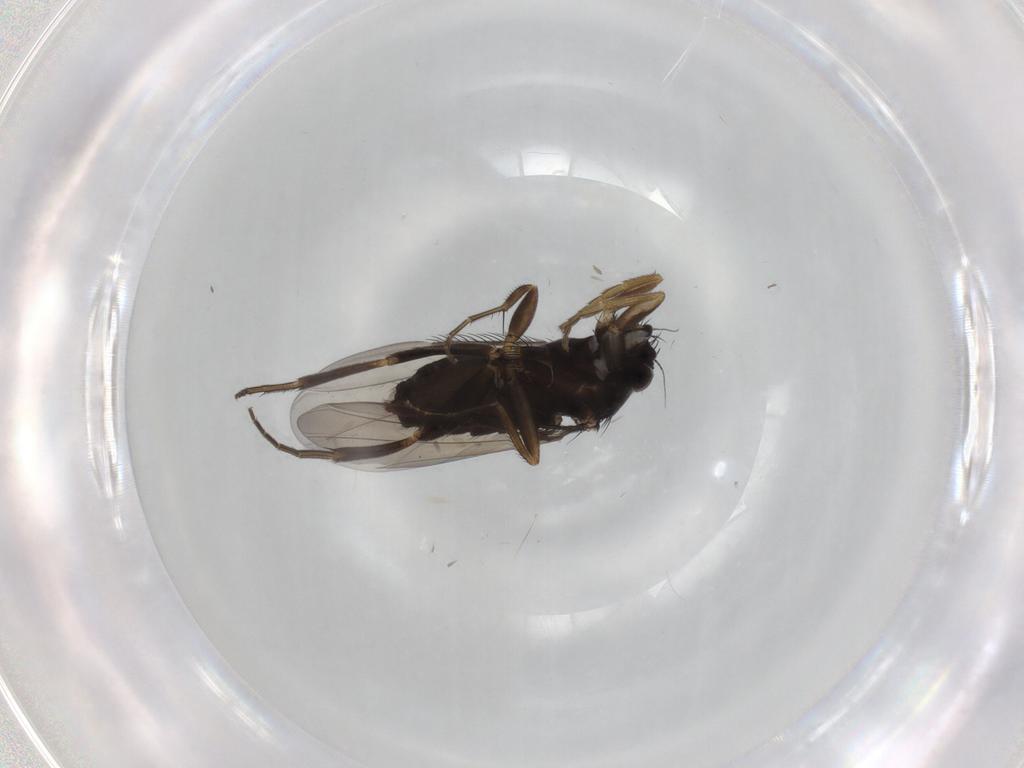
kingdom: Animalia
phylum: Arthropoda
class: Insecta
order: Diptera
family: Phoridae
